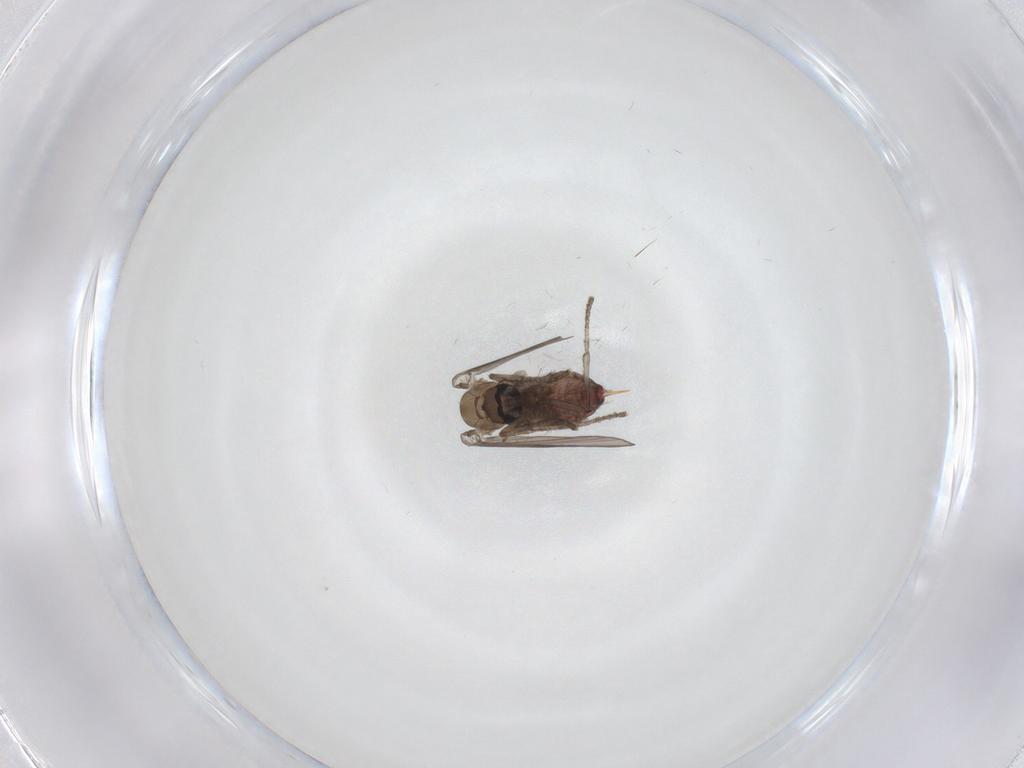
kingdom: Animalia
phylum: Arthropoda
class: Insecta
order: Diptera
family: Psychodidae
